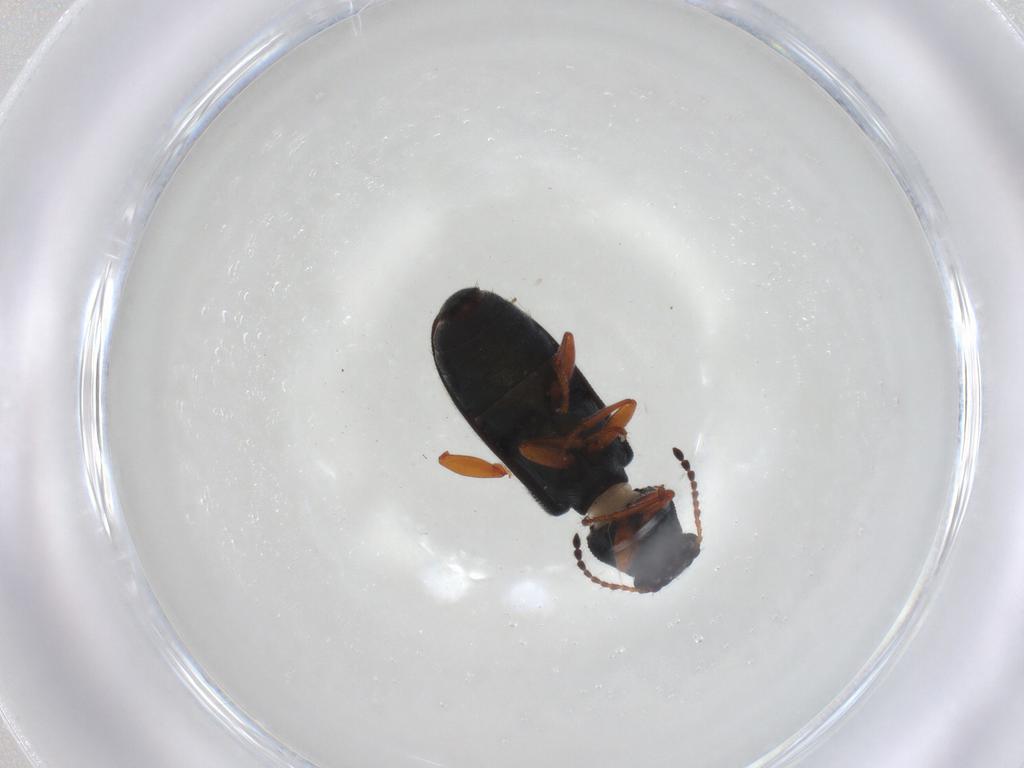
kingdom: Animalia
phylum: Arthropoda
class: Insecta
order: Coleoptera
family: Melyridae
